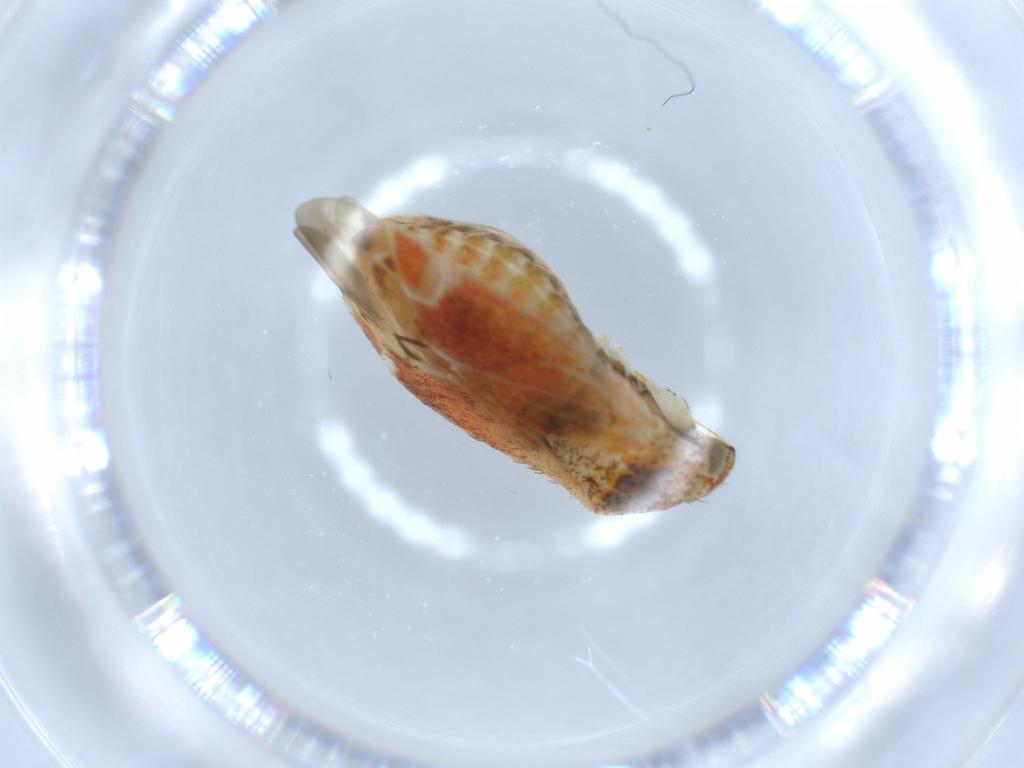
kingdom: Animalia
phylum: Arthropoda
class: Insecta
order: Hemiptera
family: Aphididae
